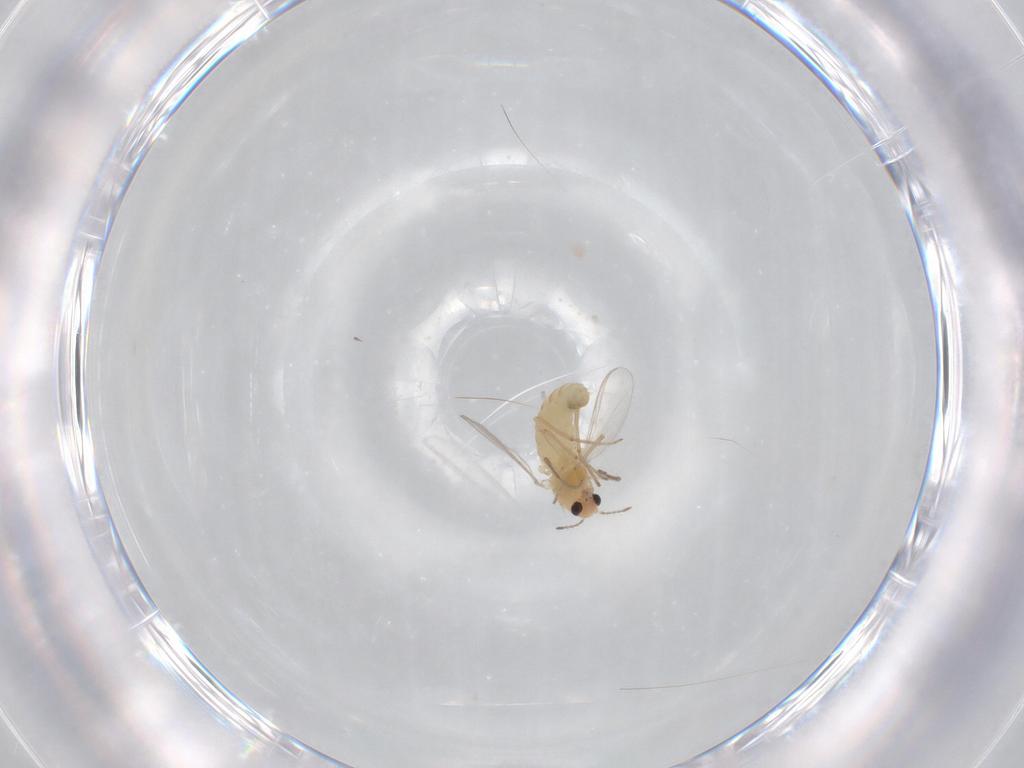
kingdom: Animalia
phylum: Arthropoda
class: Insecta
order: Diptera
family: Chironomidae
